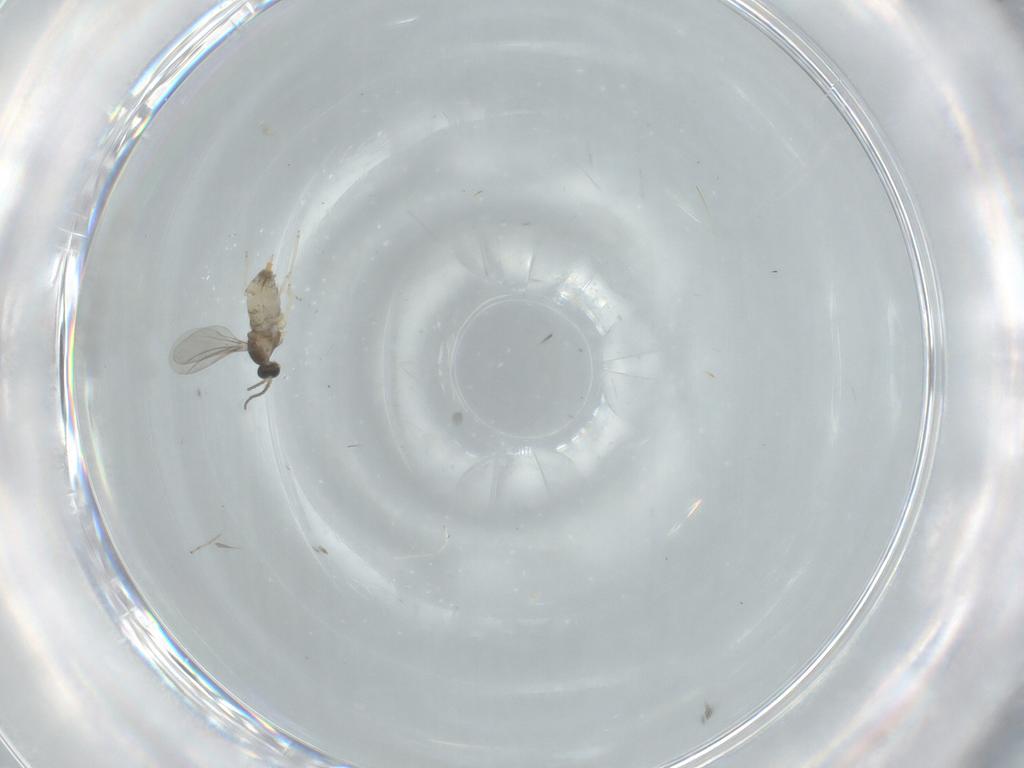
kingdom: Animalia
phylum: Arthropoda
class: Insecta
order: Diptera
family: Cecidomyiidae
